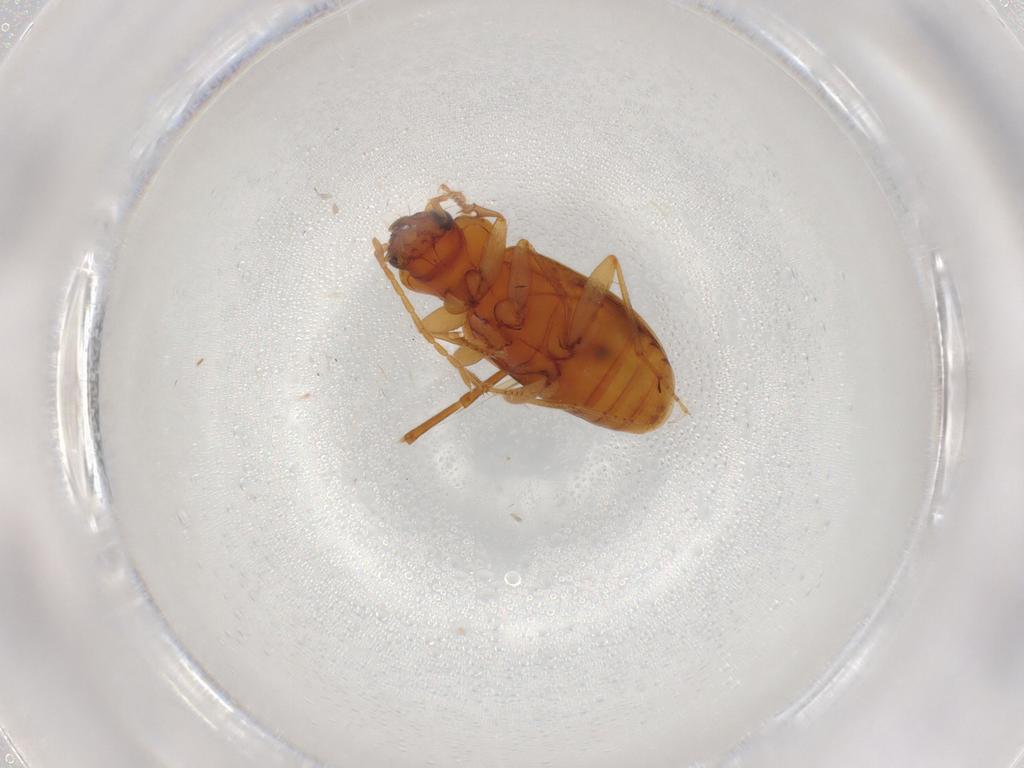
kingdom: Animalia
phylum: Arthropoda
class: Insecta
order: Coleoptera
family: Carabidae
